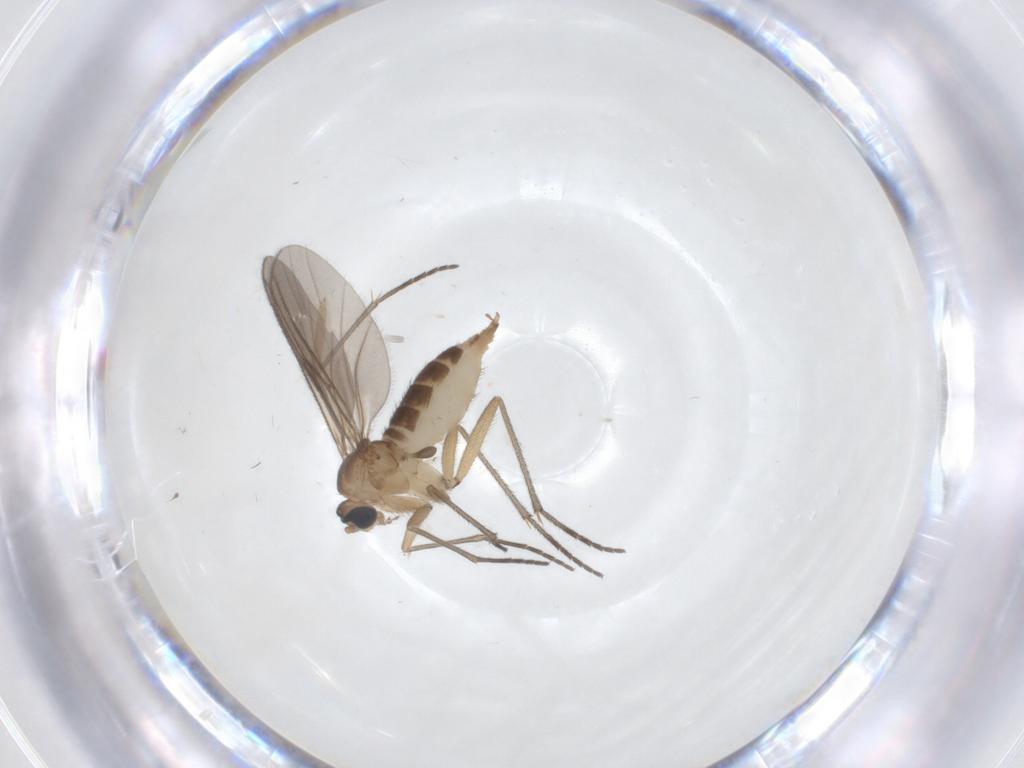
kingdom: Animalia
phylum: Arthropoda
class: Insecta
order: Diptera
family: Sciaridae
